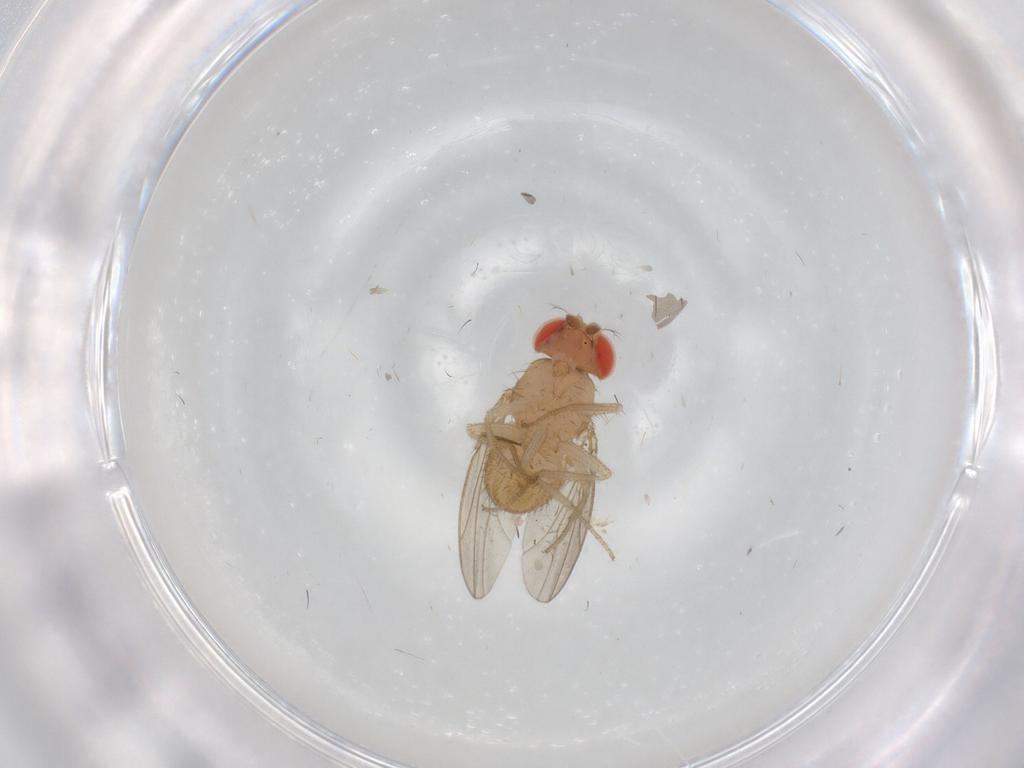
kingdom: Animalia
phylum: Arthropoda
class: Insecta
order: Diptera
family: Drosophilidae
